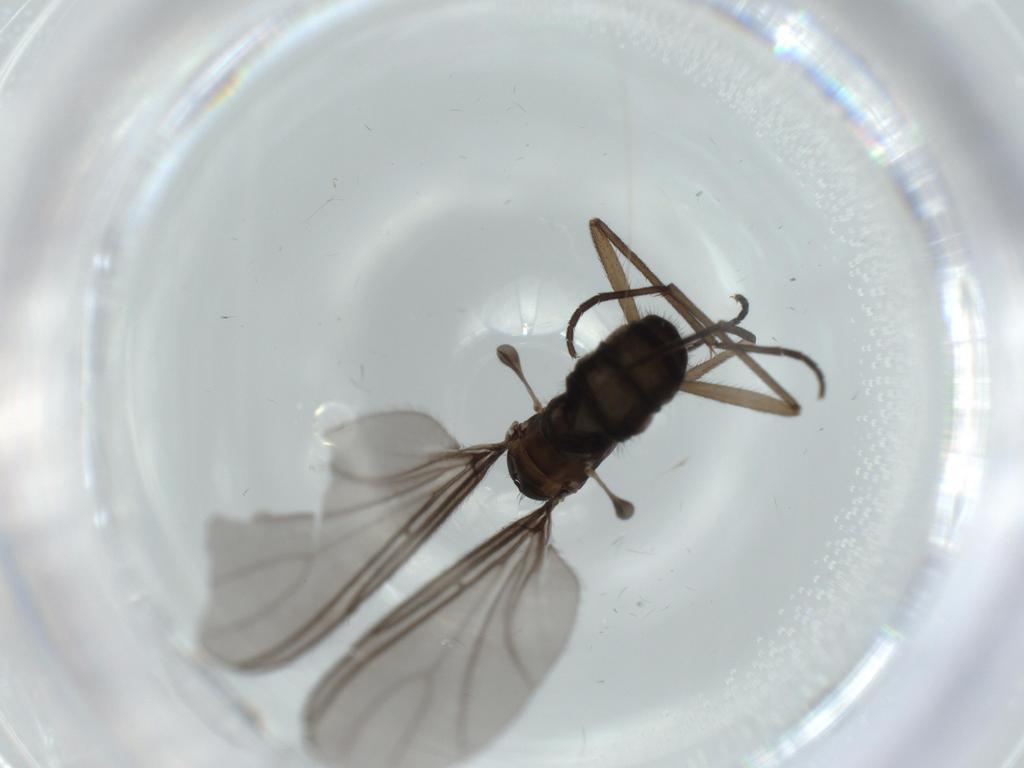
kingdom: Animalia
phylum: Arthropoda
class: Insecta
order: Diptera
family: Sciaridae
